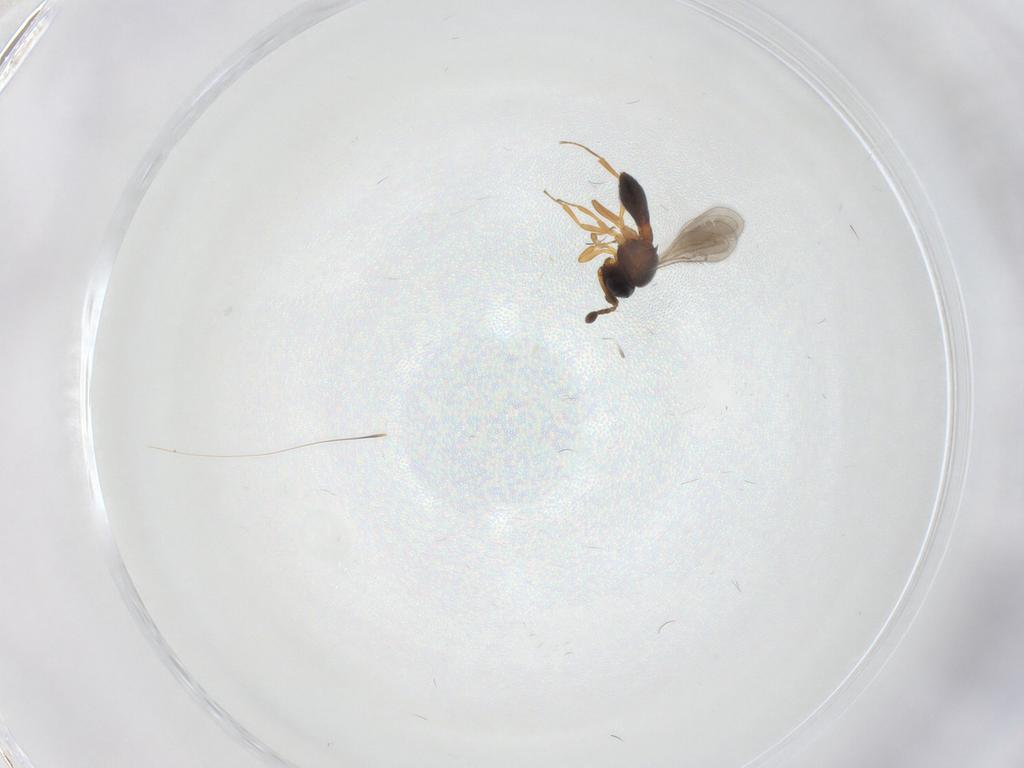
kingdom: Animalia
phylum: Arthropoda
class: Insecta
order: Hymenoptera
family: Scelionidae
